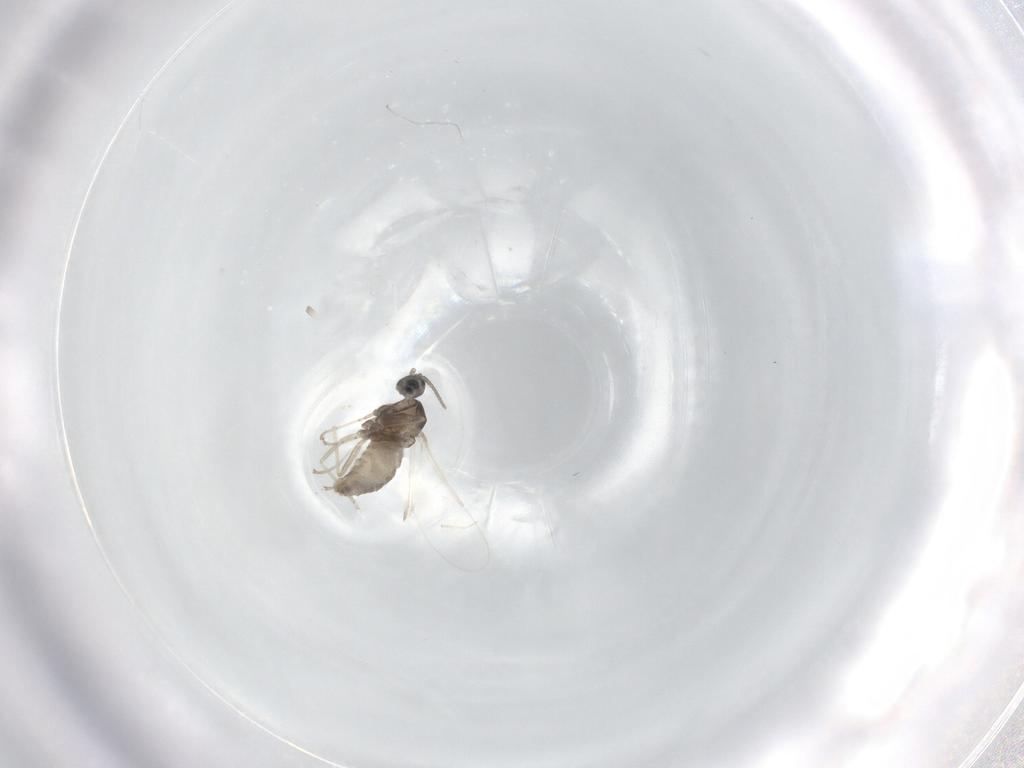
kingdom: Animalia
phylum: Arthropoda
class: Insecta
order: Diptera
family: Cecidomyiidae
